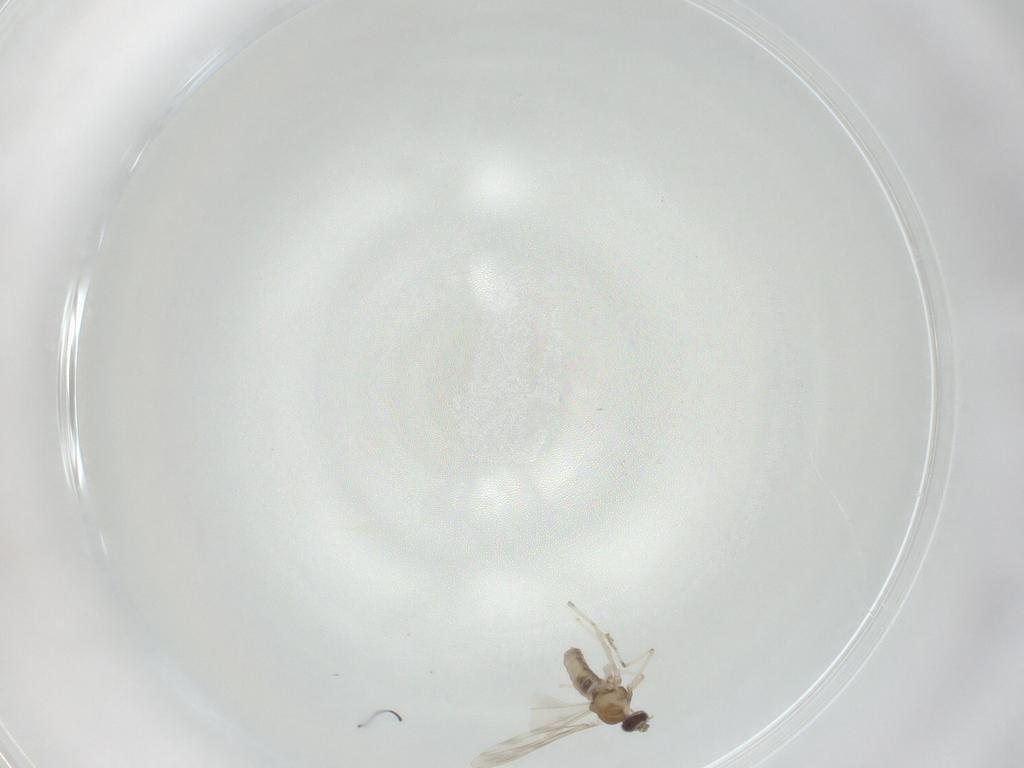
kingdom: Animalia
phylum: Arthropoda
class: Insecta
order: Diptera
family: Cecidomyiidae
